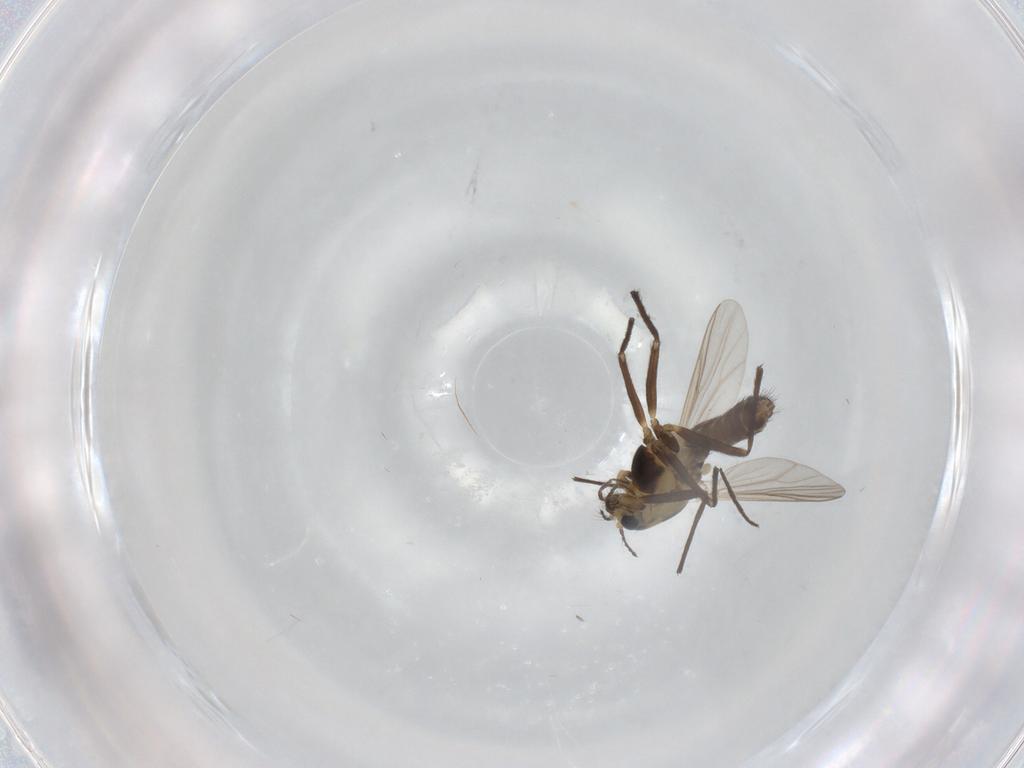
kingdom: Animalia
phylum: Arthropoda
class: Insecta
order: Diptera
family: Chironomidae
